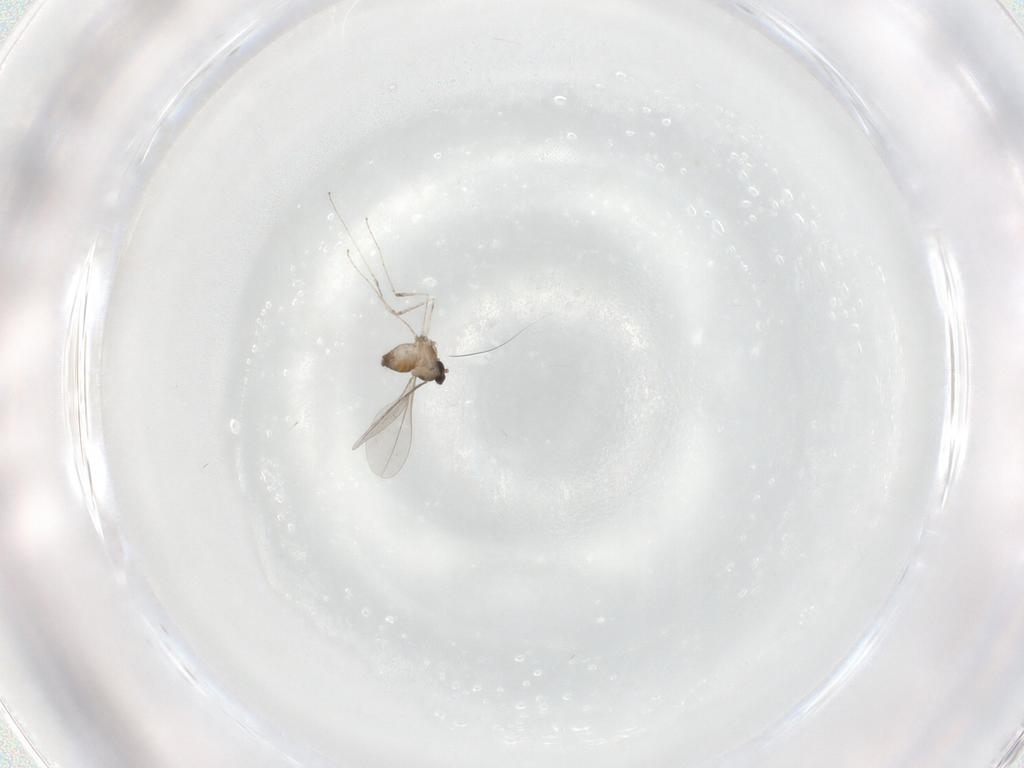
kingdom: Animalia
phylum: Arthropoda
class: Insecta
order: Diptera
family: Cecidomyiidae
